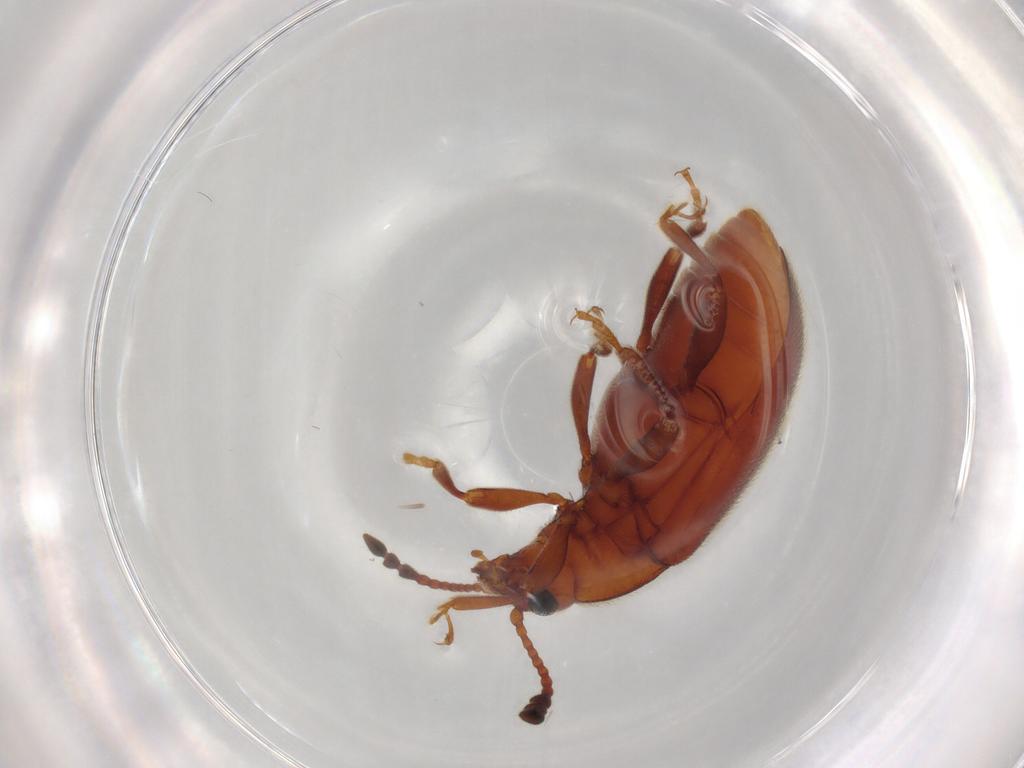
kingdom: Animalia
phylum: Arthropoda
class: Insecta
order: Coleoptera
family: Endomychidae
